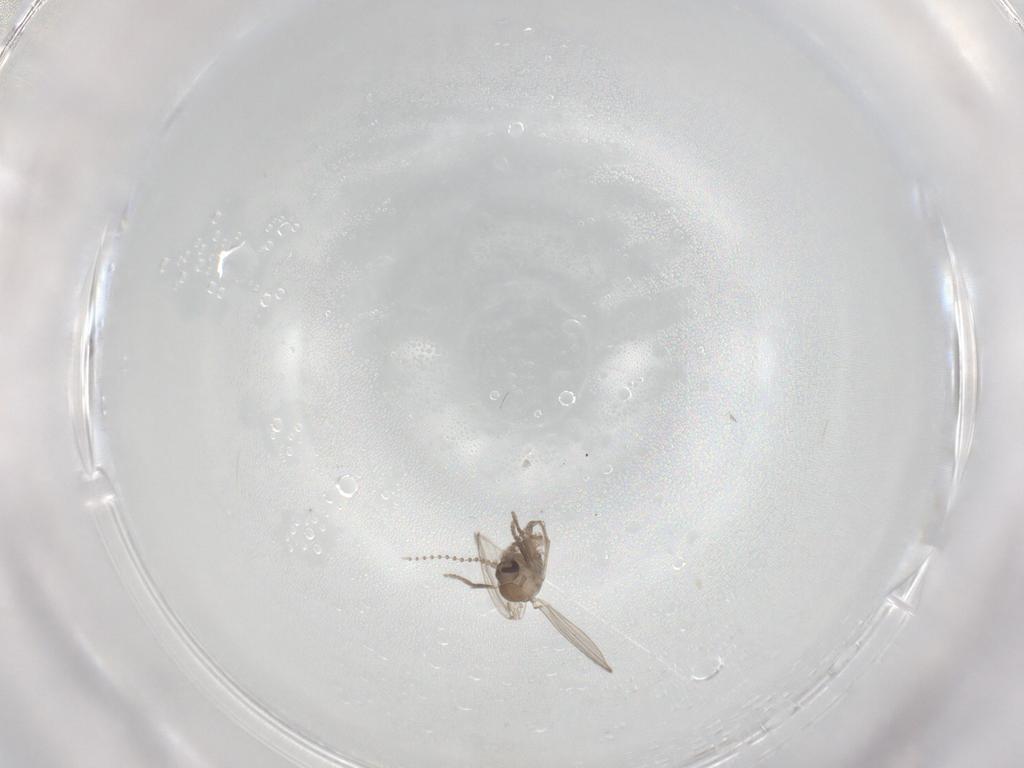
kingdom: Animalia
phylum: Arthropoda
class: Insecta
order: Diptera
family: Psychodidae
